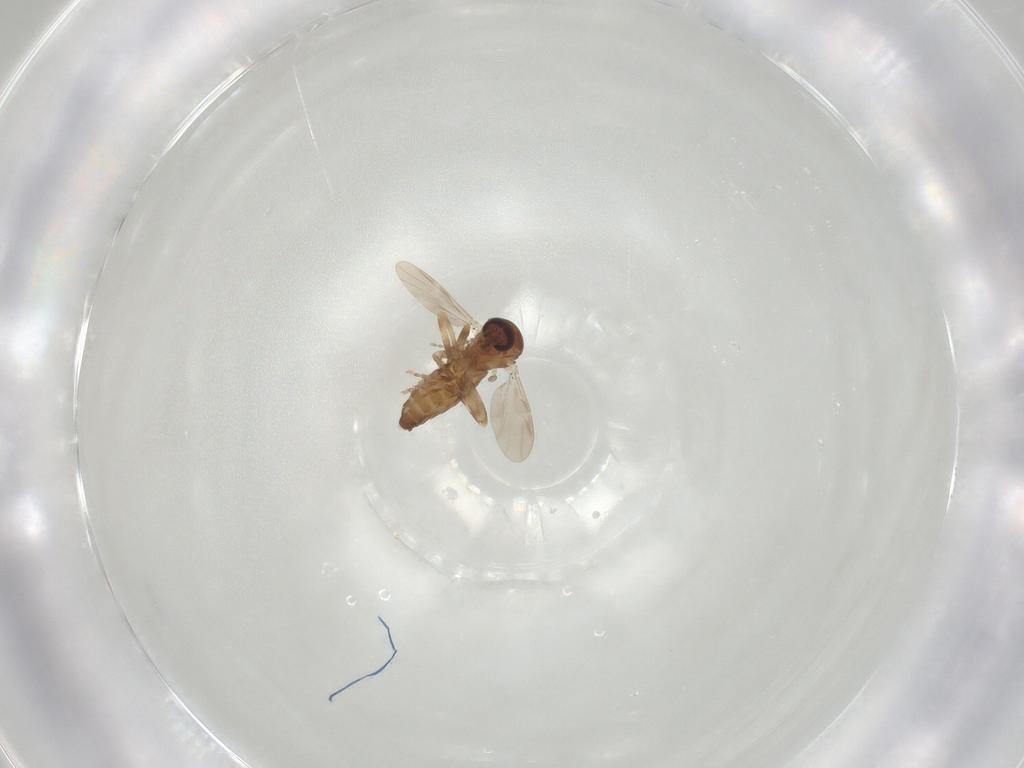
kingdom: Animalia
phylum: Arthropoda
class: Insecta
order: Diptera
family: Ceratopogonidae
